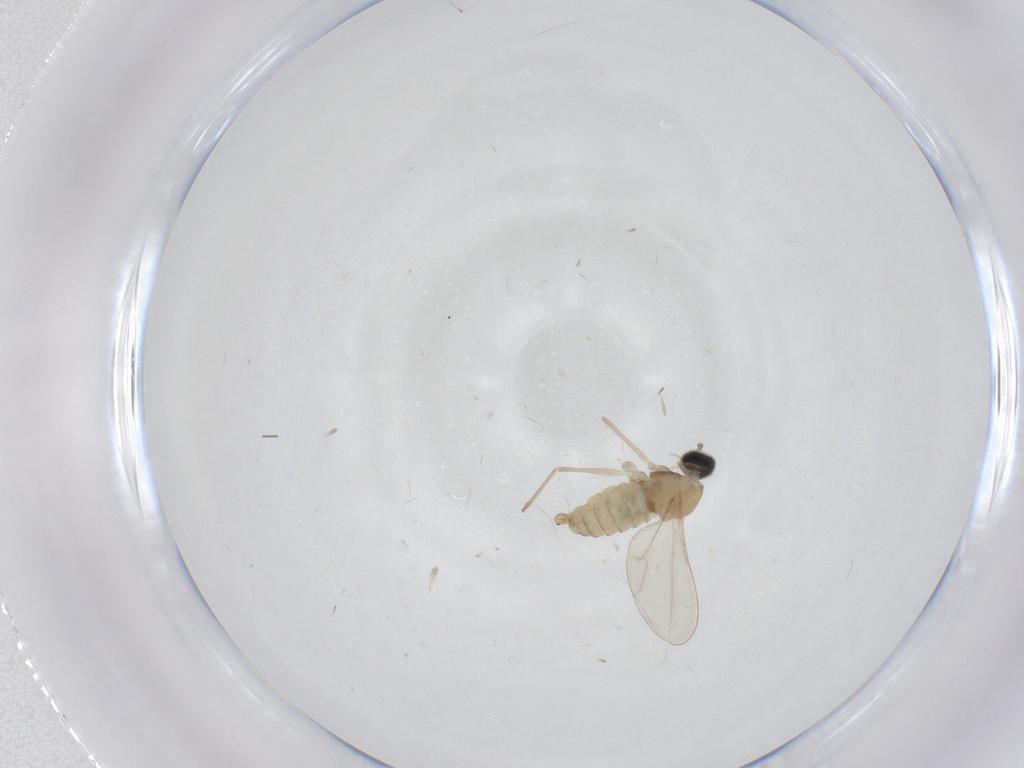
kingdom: Animalia
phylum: Arthropoda
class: Insecta
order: Diptera
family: Cecidomyiidae
